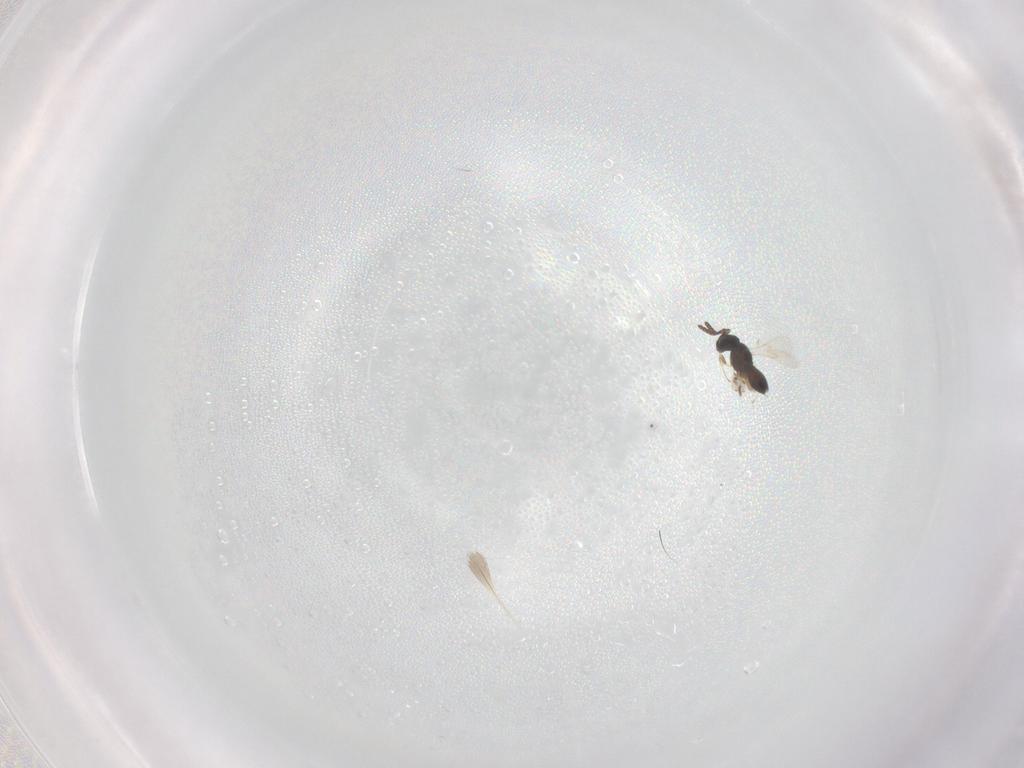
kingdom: Animalia
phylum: Arthropoda
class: Insecta
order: Hymenoptera
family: Scelionidae
